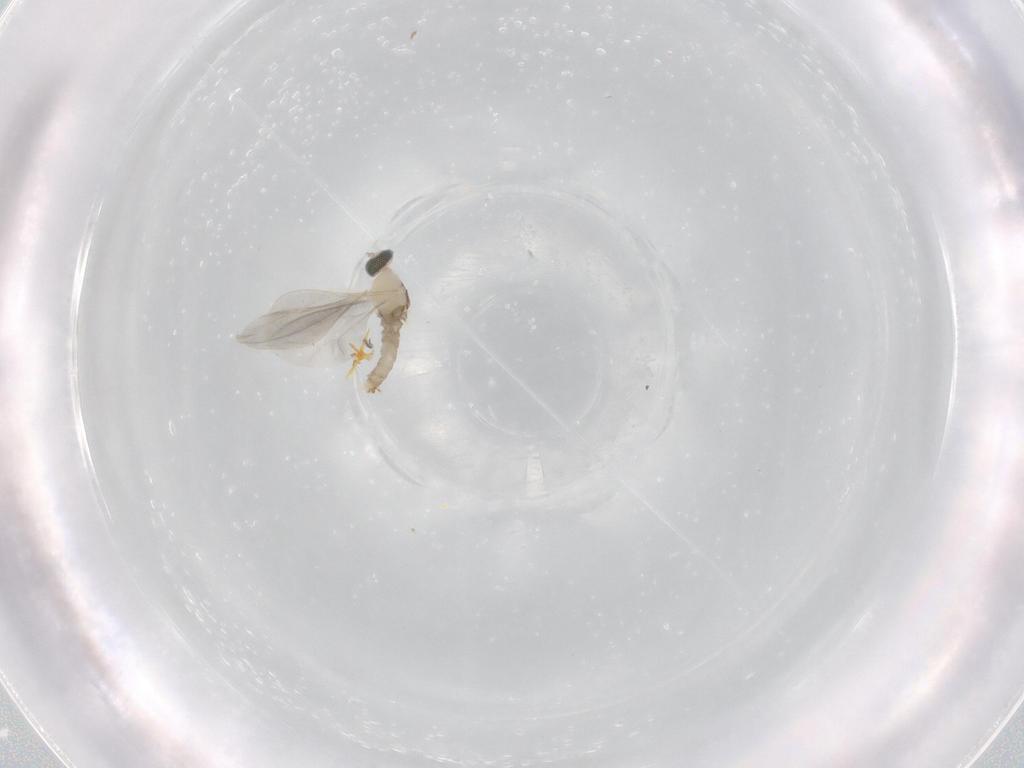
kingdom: Animalia
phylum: Arthropoda
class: Insecta
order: Diptera
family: Cecidomyiidae
